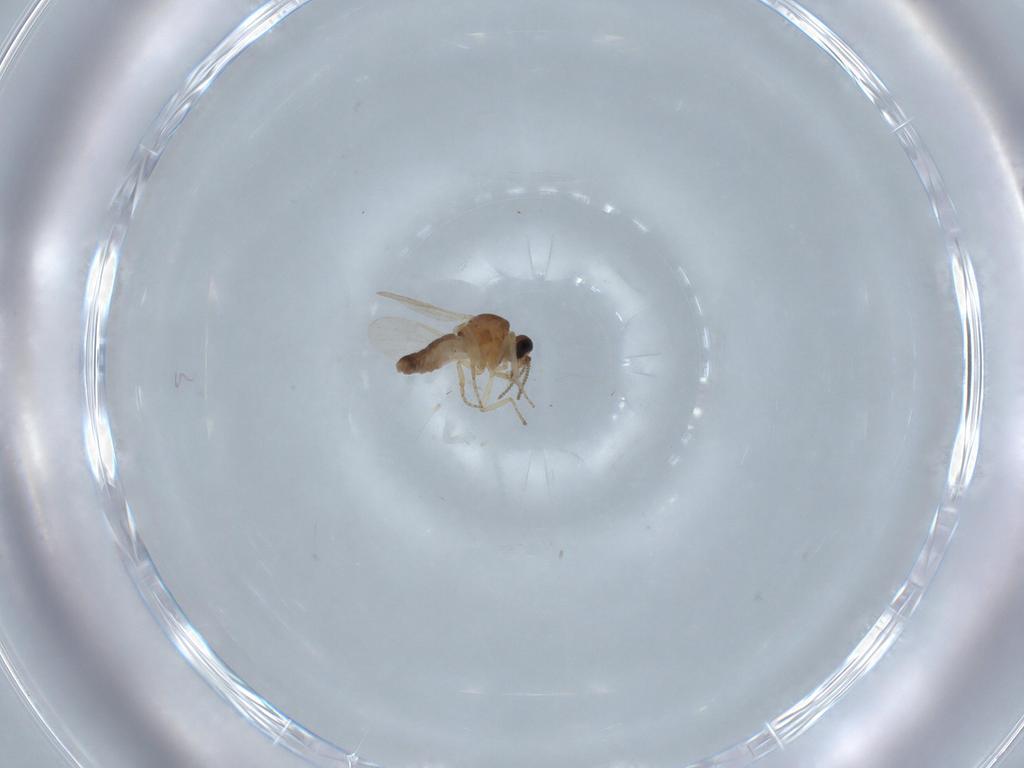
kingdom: Animalia
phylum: Arthropoda
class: Insecta
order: Diptera
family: Ceratopogonidae
